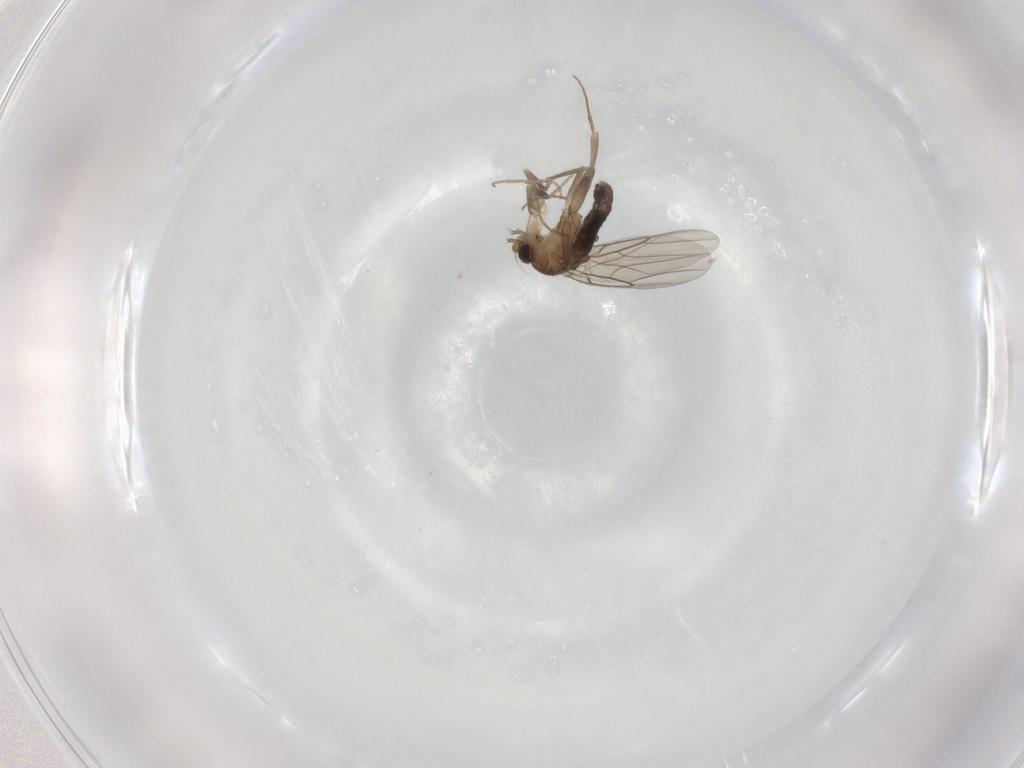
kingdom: Animalia
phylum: Arthropoda
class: Insecta
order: Diptera
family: Phoridae
